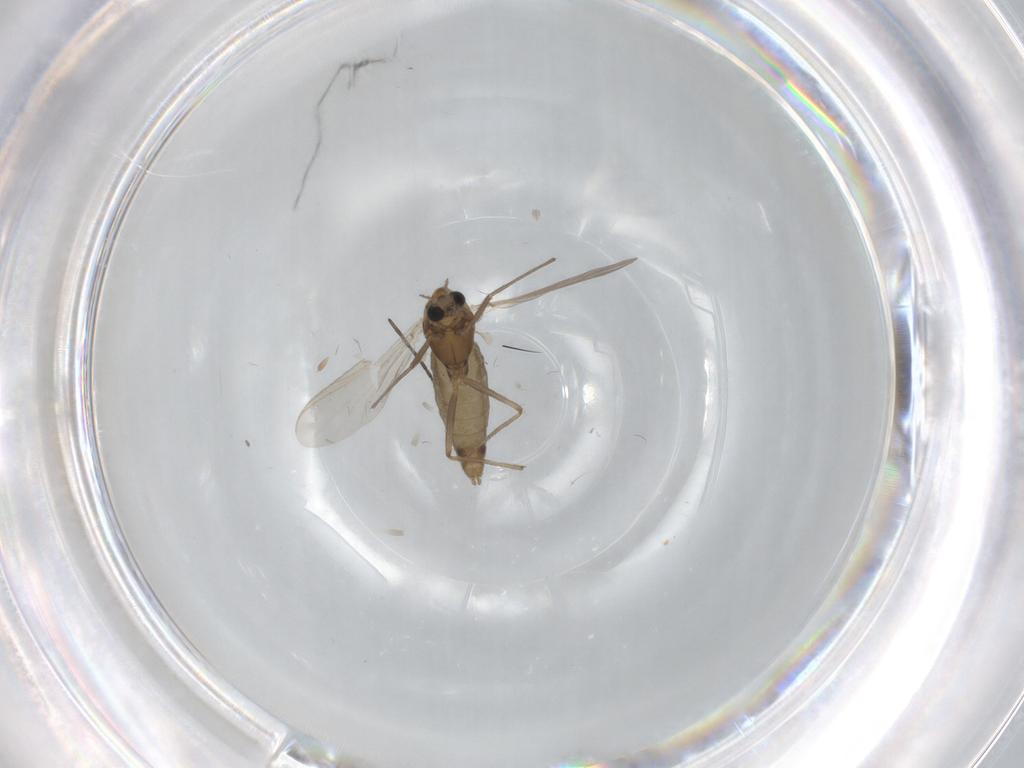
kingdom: Animalia
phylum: Arthropoda
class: Insecta
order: Diptera
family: Chironomidae
